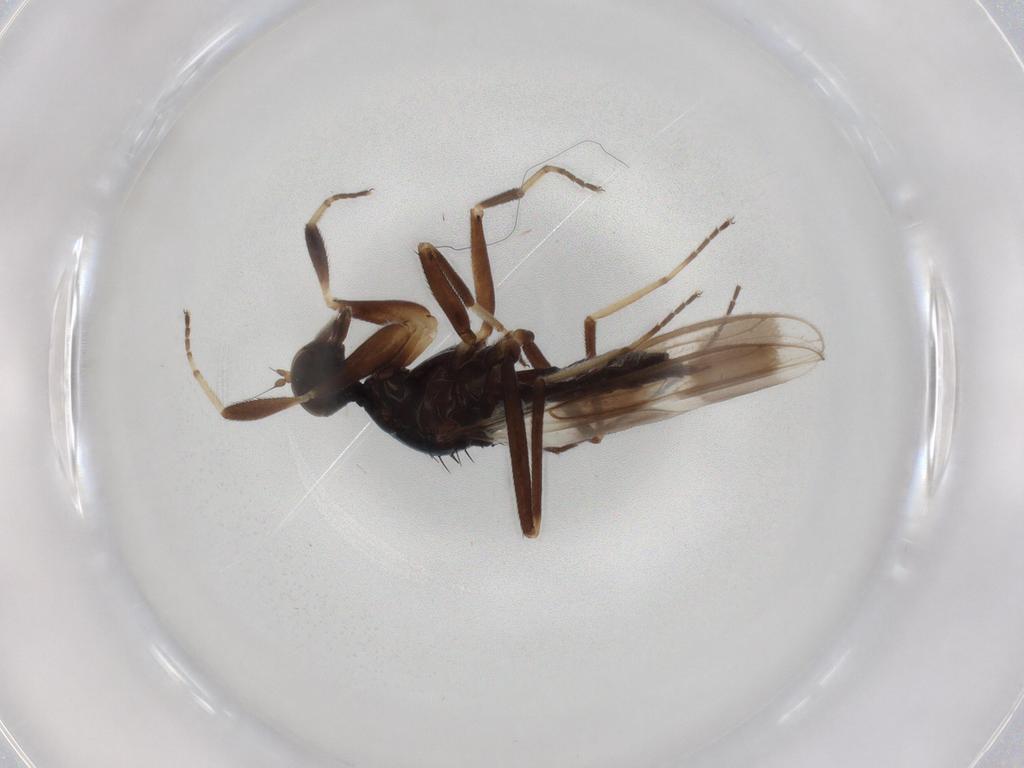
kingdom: Animalia
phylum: Arthropoda
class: Insecta
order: Diptera
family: Hybotidae
